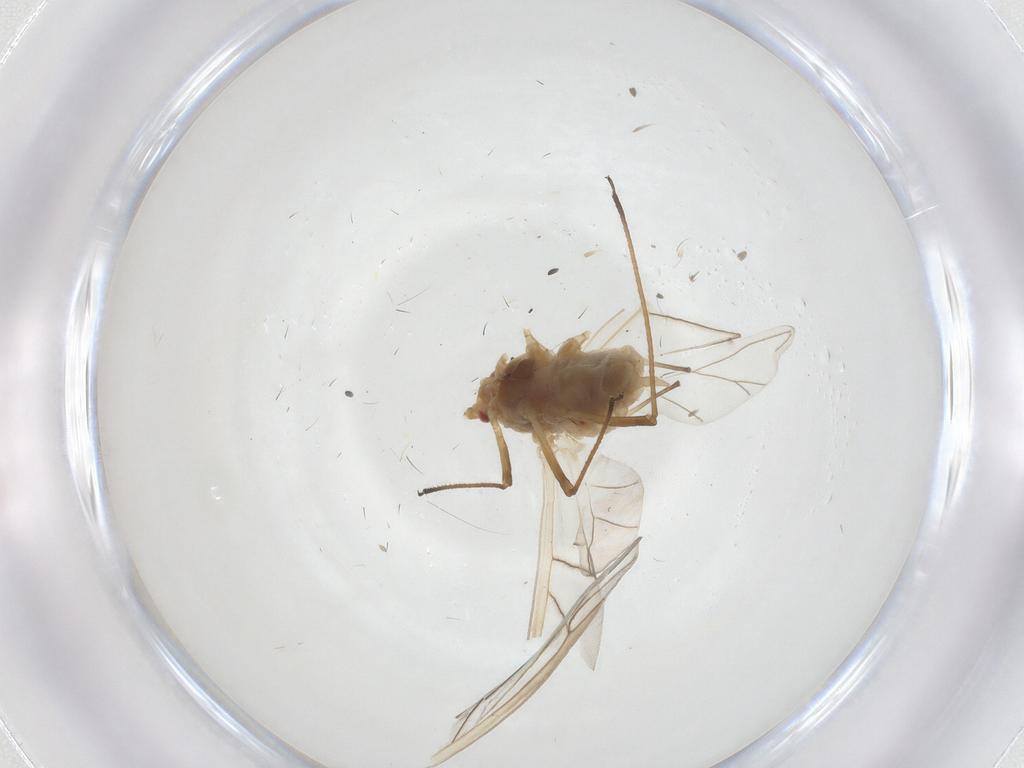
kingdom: Animalia
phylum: Arthropoda
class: Insecta
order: Hemiptera
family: Aphididae
